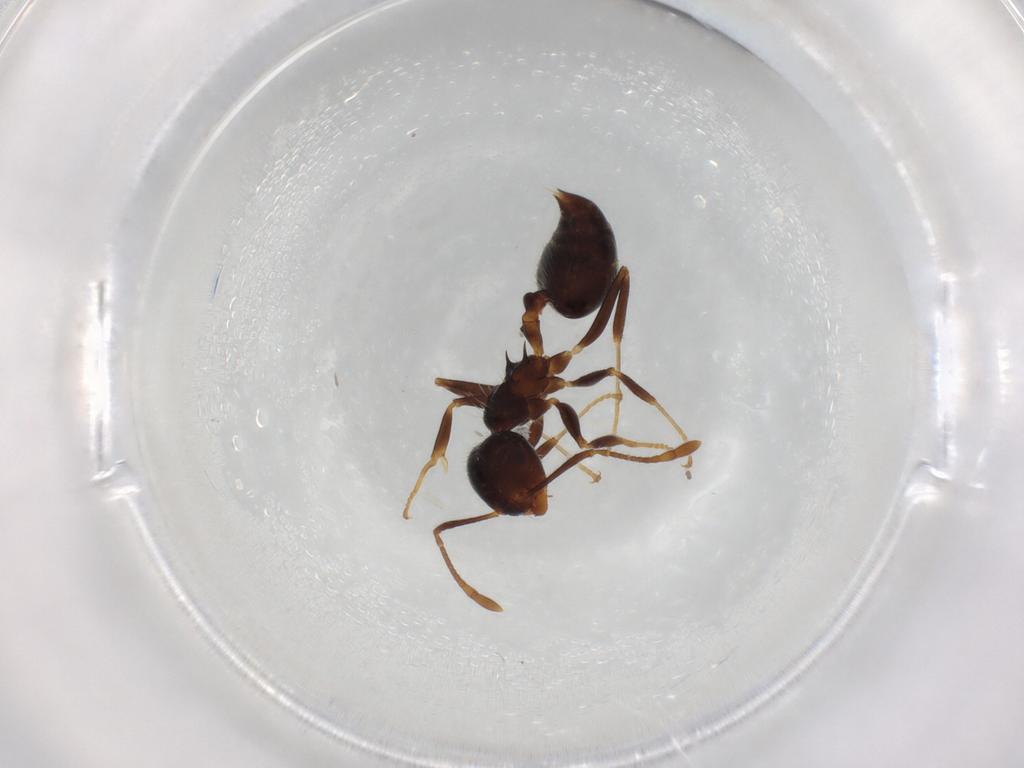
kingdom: Animalia
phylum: Arthropoda
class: Insecta
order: Hymenoptera
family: Formicidae
